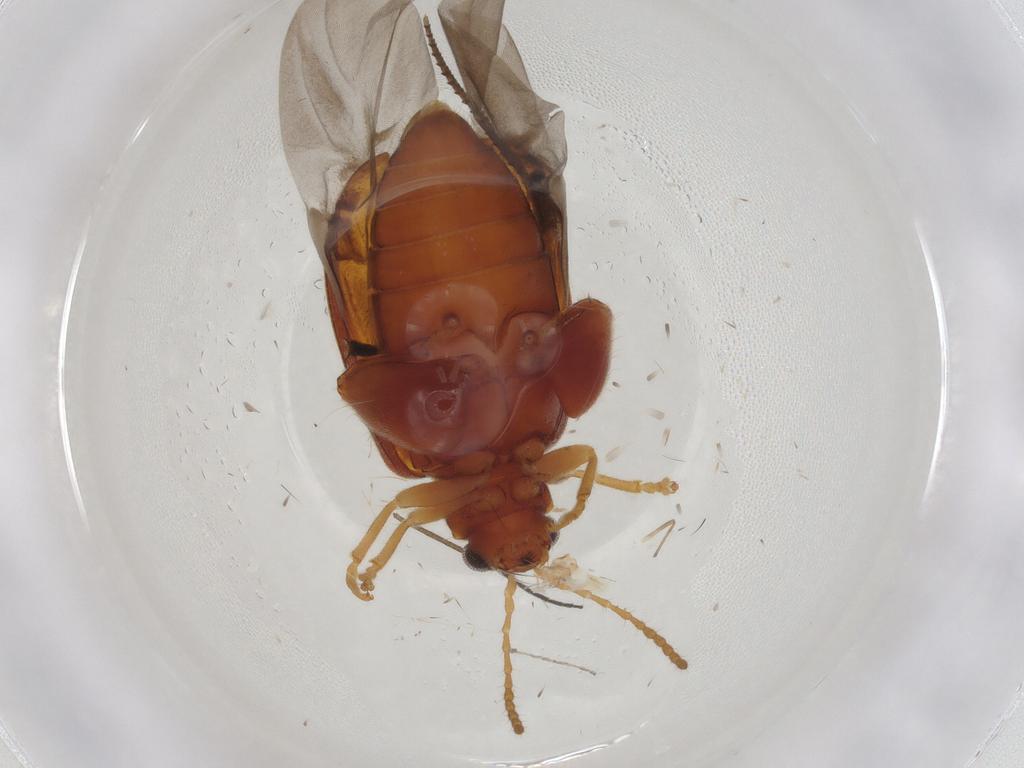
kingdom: Animalia
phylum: Arthropoda
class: Insecta
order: Coleoptera
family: Chrysomelidae
